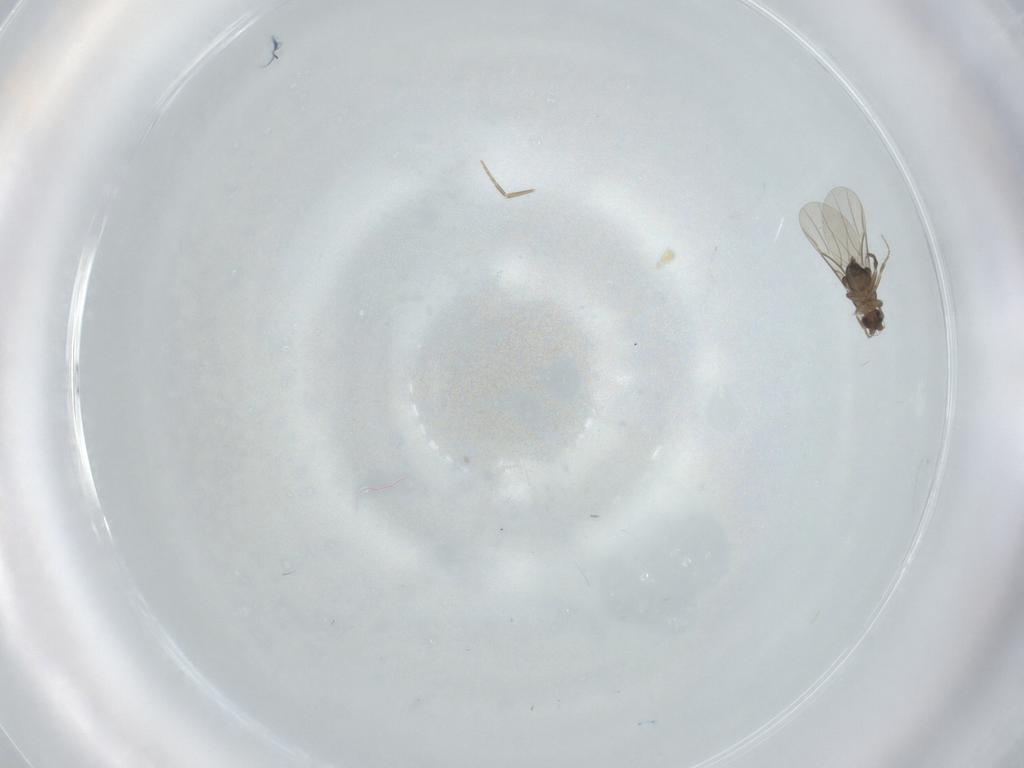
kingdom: Animalia
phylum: Arthropoda
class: Insecta
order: Diptera
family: Phoridae
